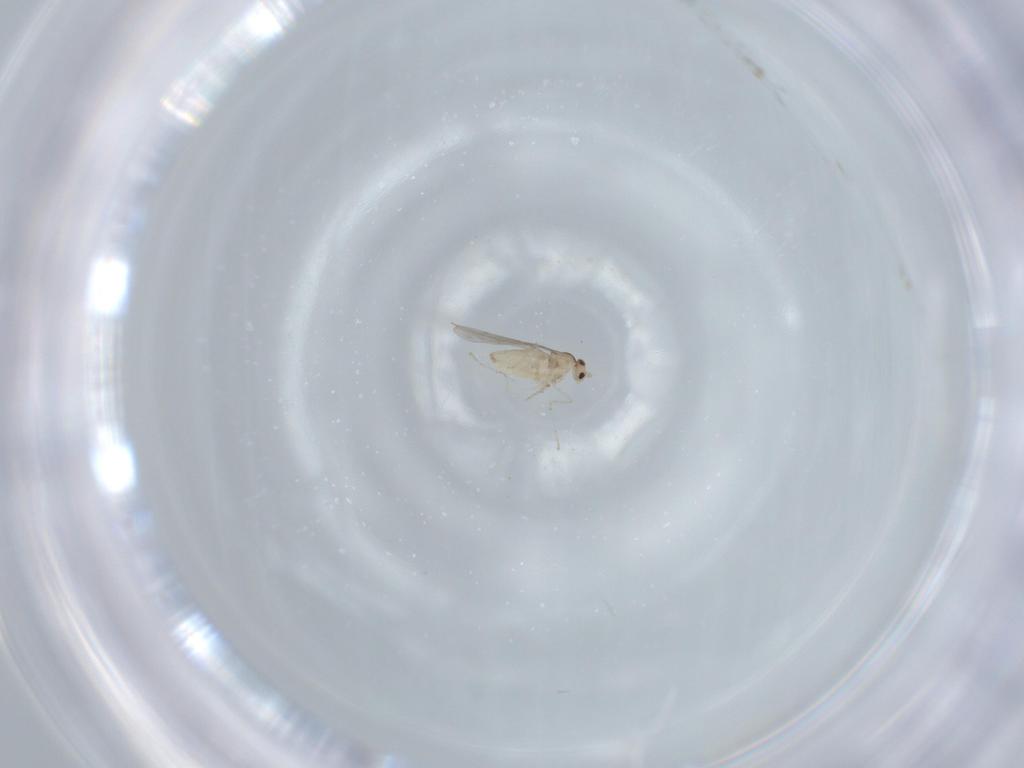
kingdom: Animalia
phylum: Arthropoda
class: Insecta
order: Diptera
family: Cecidomyiidae
